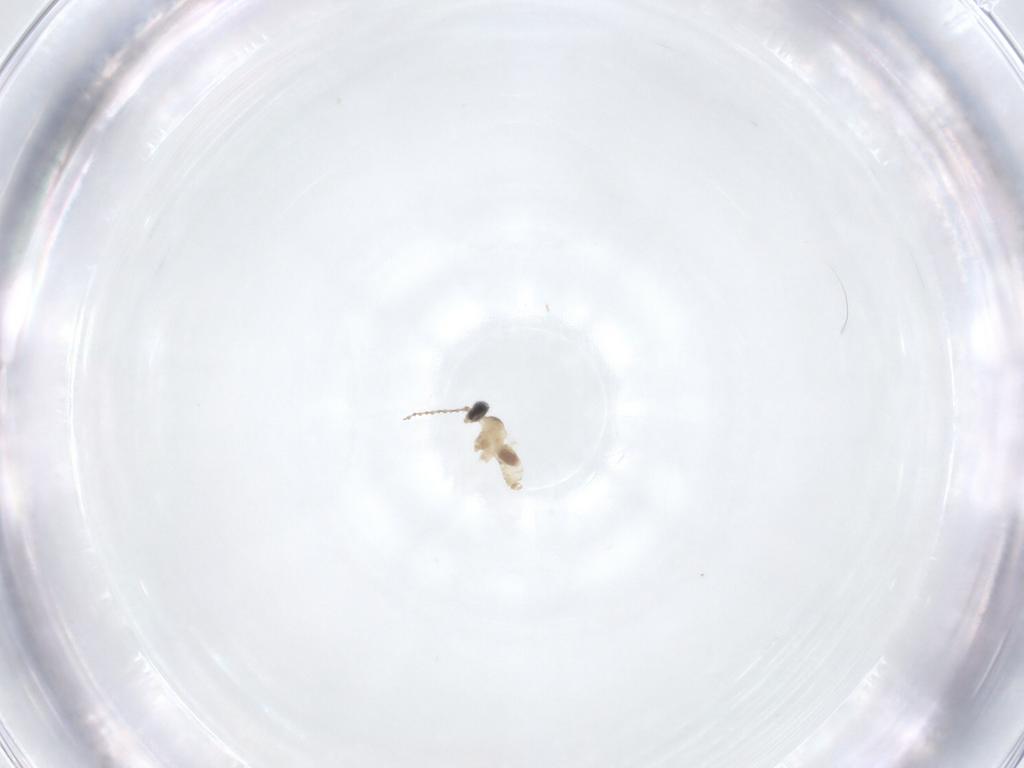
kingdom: Animalia
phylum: Arthropoda
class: Insecta
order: Diptera
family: Cecidomyiidae
